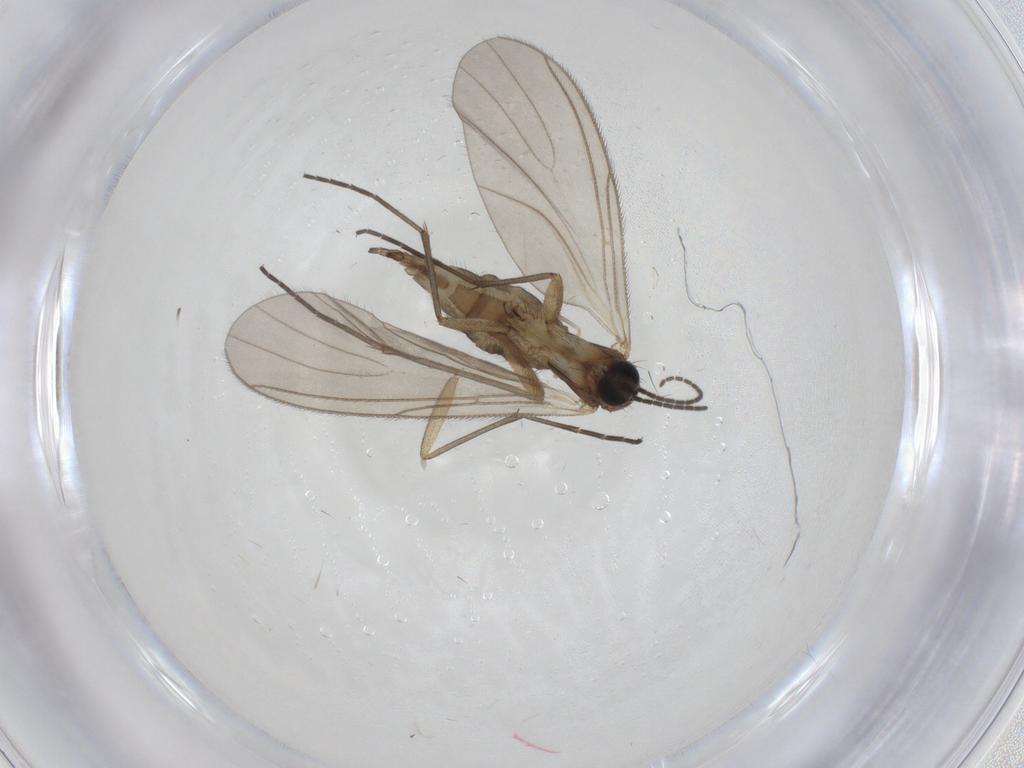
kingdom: Animalia
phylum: Arthropoda
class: Insecta
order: Diptera
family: Sciaridae
